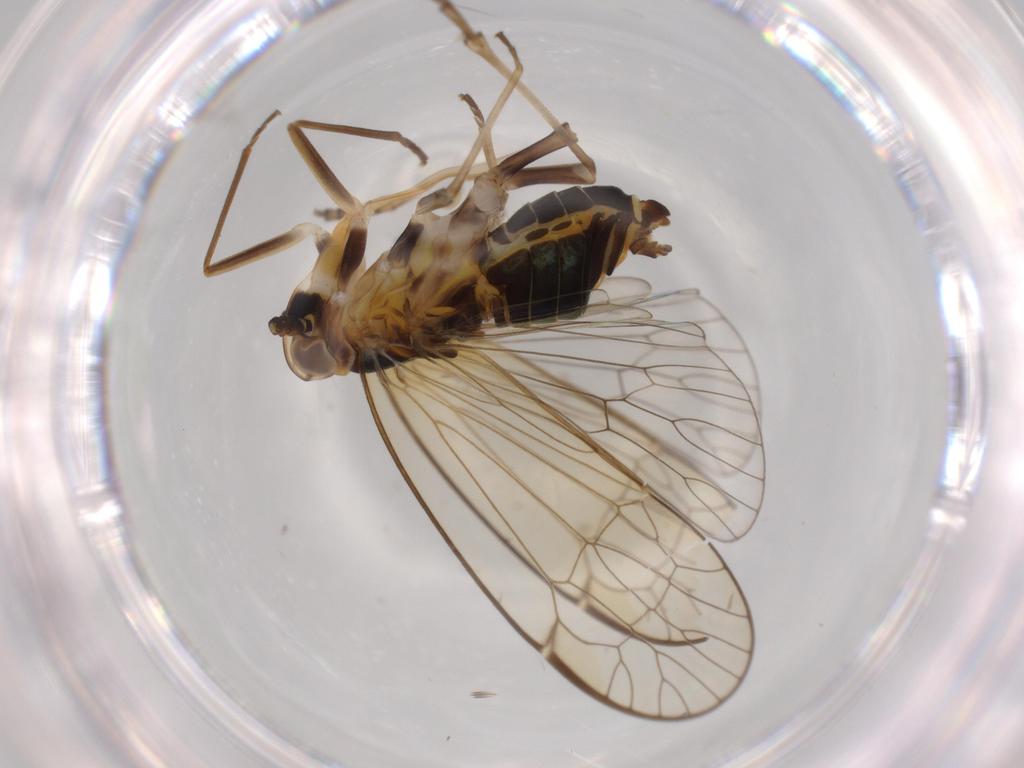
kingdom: Animalia
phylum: Arthropoda
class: Insecta
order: Hemiptera
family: Kinnaridae
